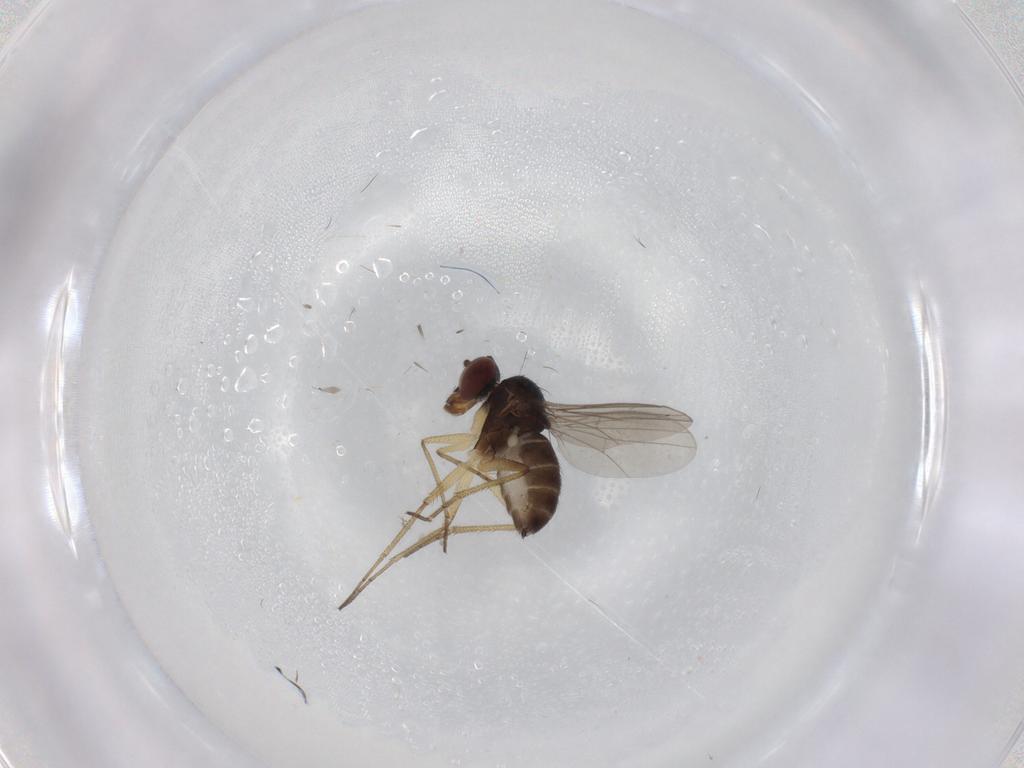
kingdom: Animalia
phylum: Arthropoda
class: Insecta
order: Diptera
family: Dolichopodidae
